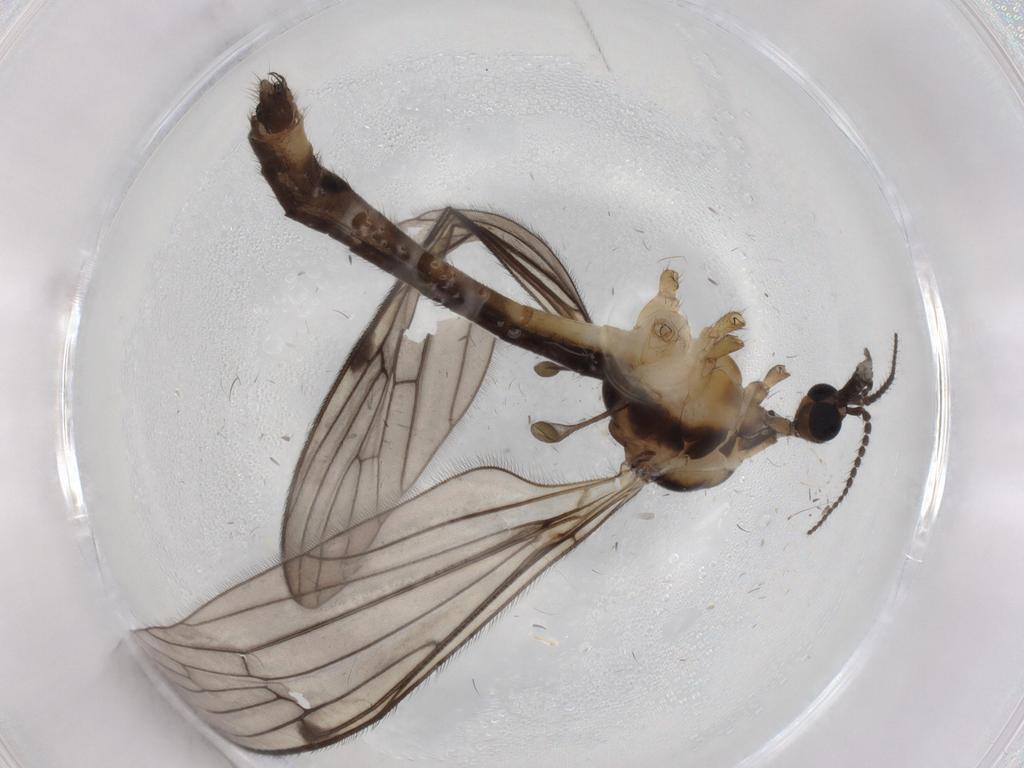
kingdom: Animalia
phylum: Arthropoda
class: Insecta
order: Diptera
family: Limoniidae
